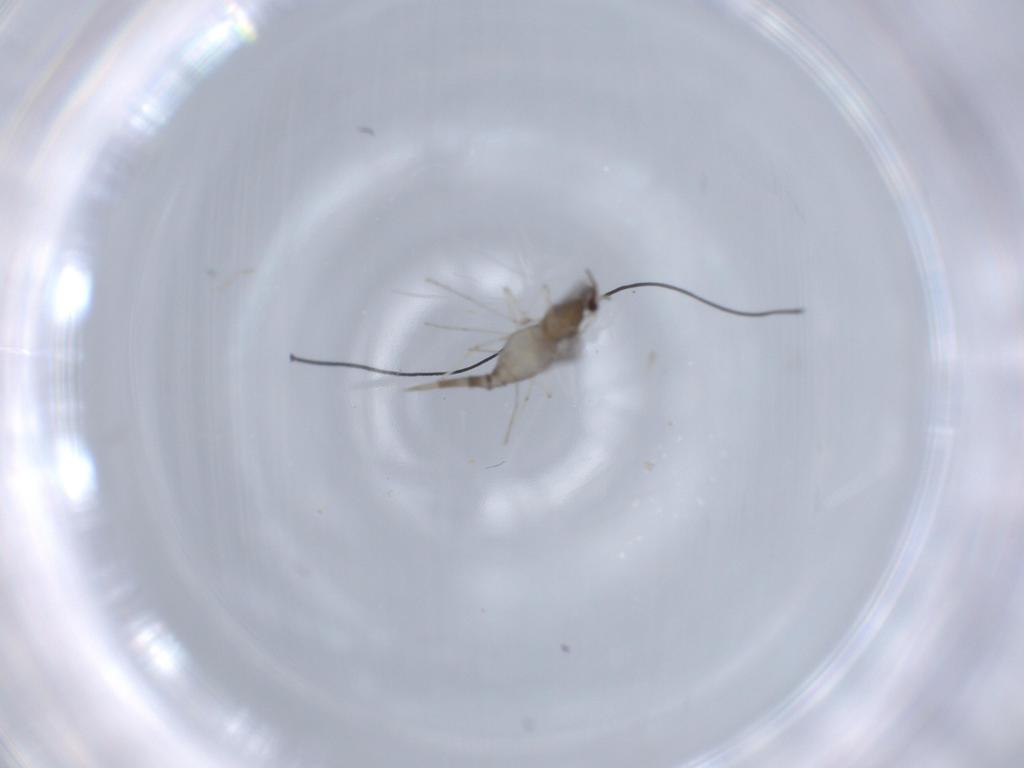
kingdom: Animalia
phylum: Arthropoda
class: Insecta
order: Diptera
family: Cecidomyiidae
